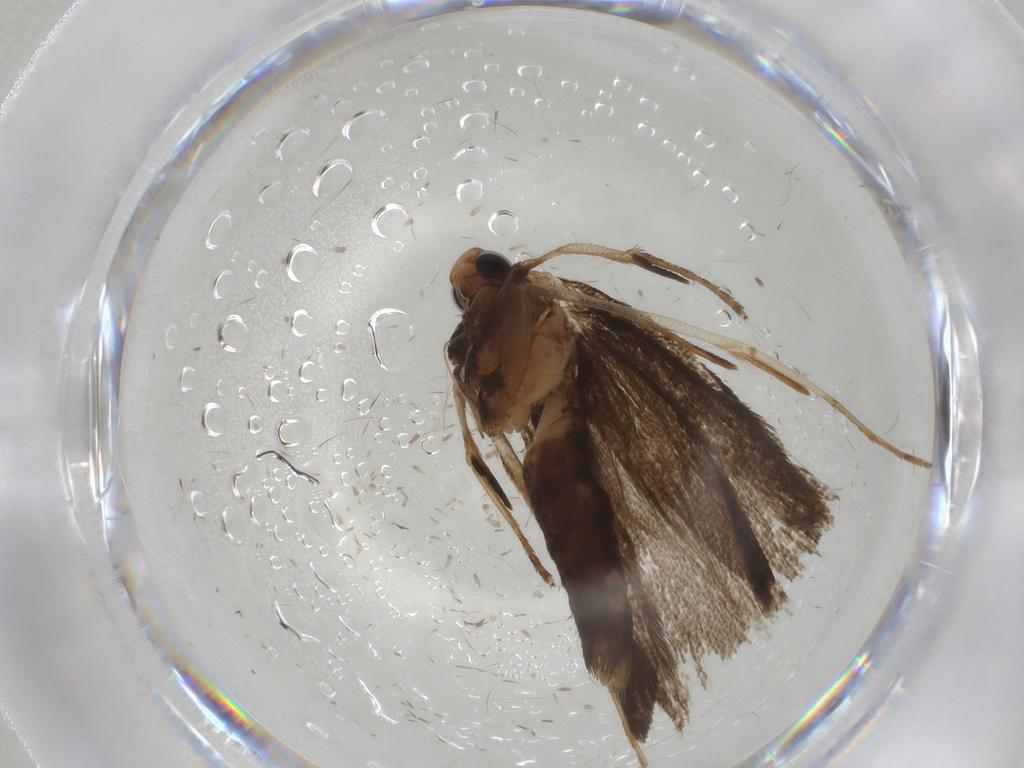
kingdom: Animalia
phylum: Arthropoda
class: Insecta
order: Lepidoptera
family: Gelechiidae
